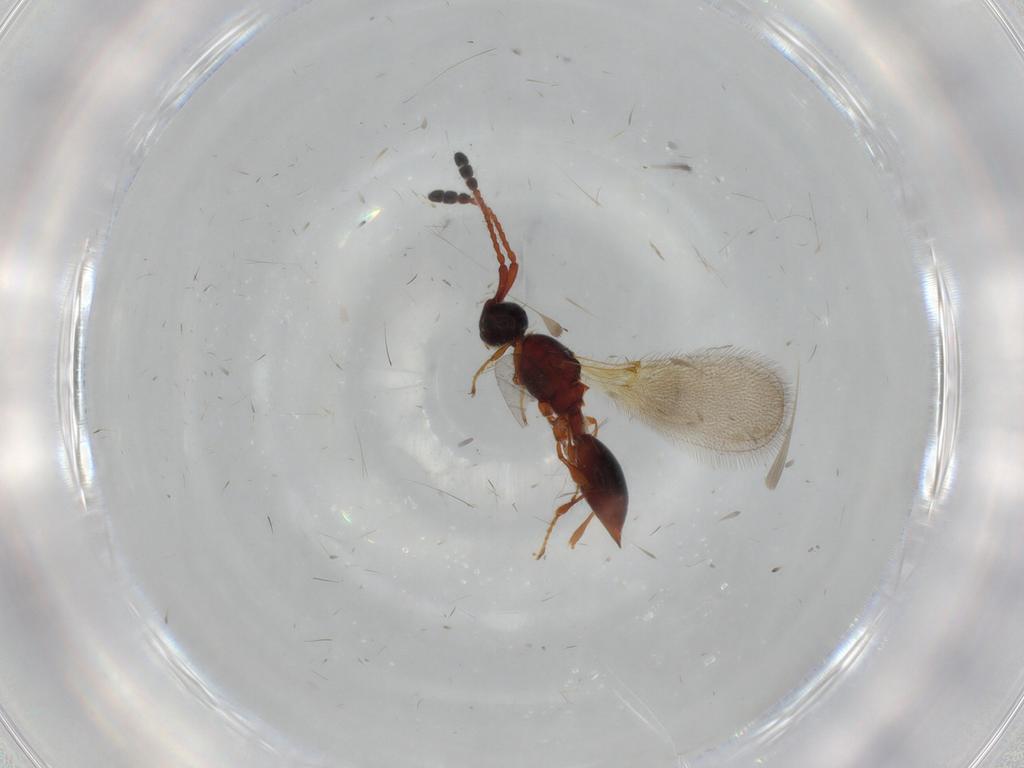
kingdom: Animalia
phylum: Arthropoda
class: Insecta
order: Hymenoptera
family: Diapriidae
